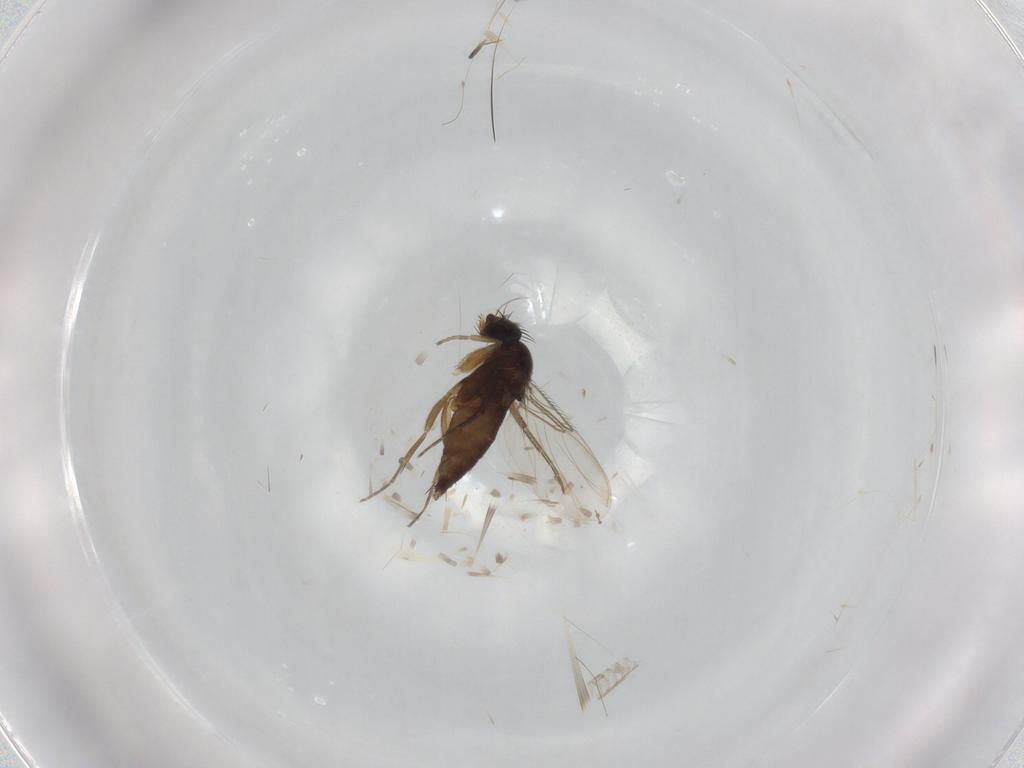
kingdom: Animalia
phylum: Arthropoda
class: Insecta
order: Diptera
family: Phoridae
